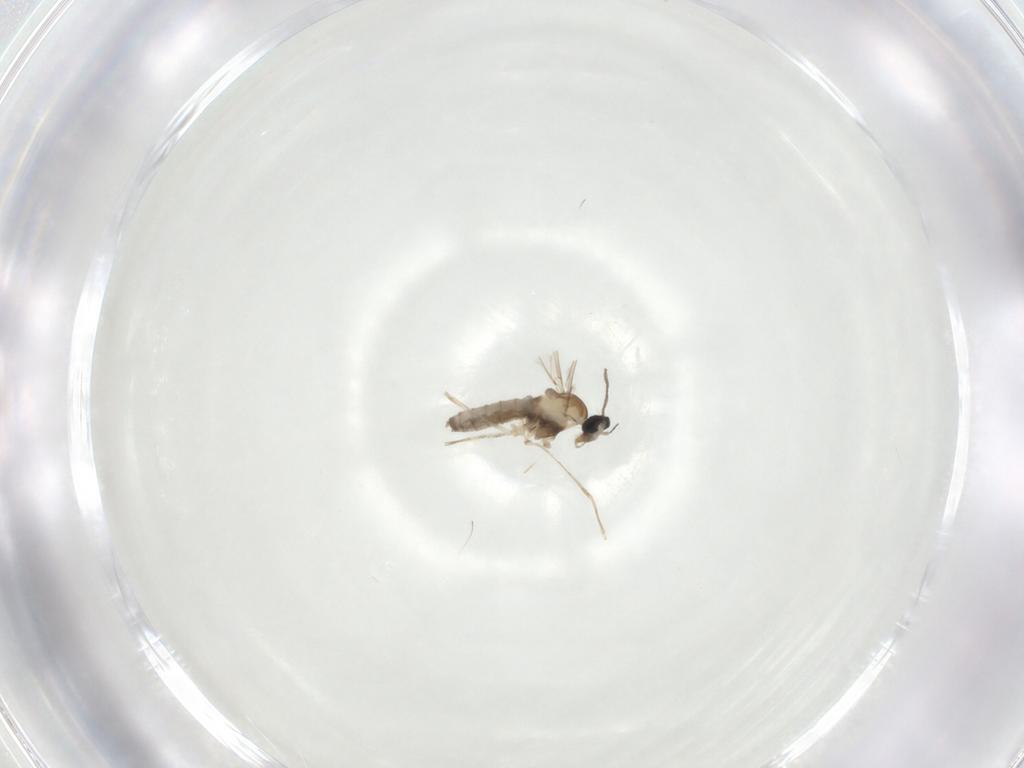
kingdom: Animalia
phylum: Arthropoda
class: Insecta
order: Diptera
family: Cecidomyiidae
